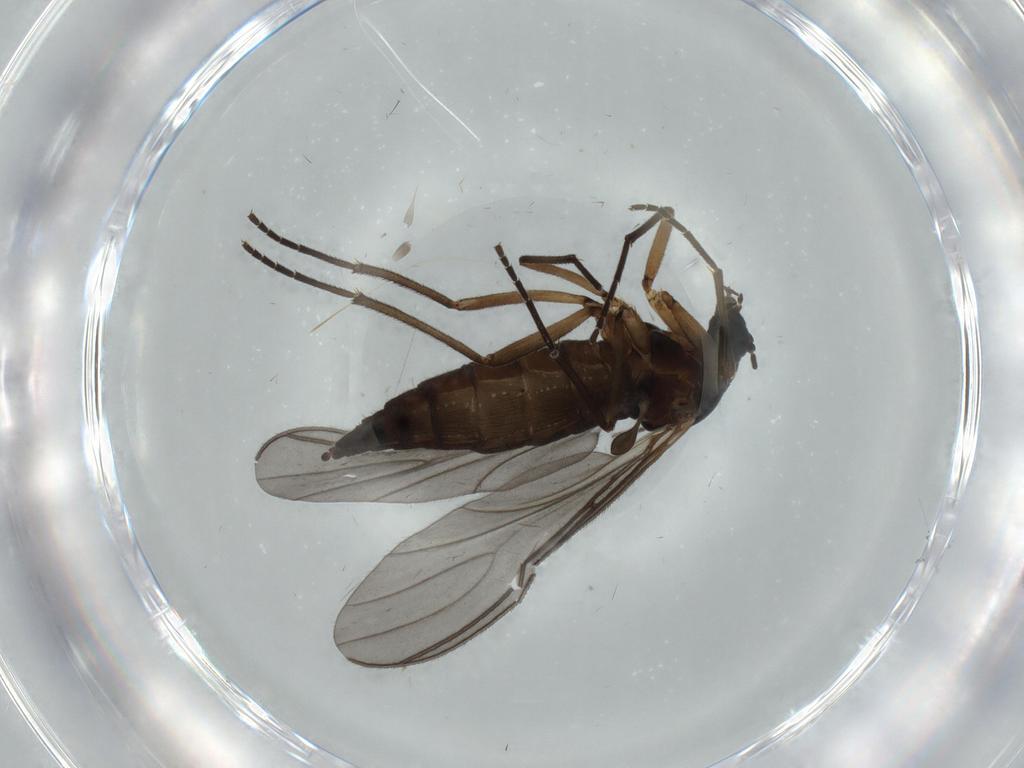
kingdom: Animalia
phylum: Arthropoda
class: Insecta
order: Diptera
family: Sciaridae
